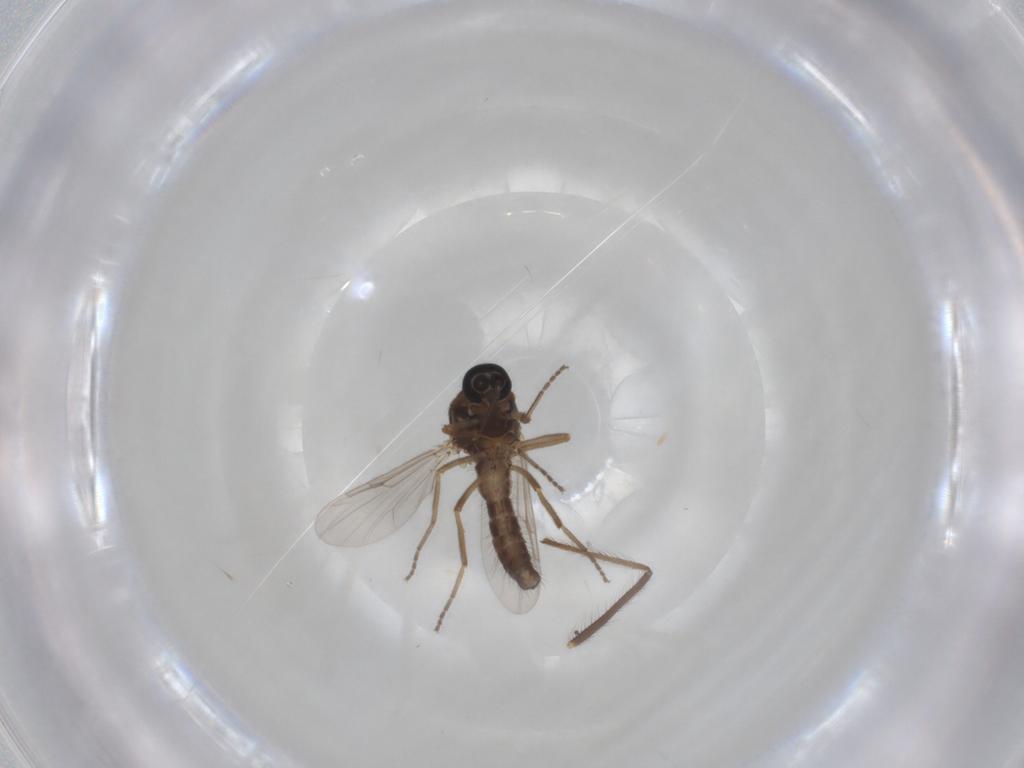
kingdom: Animalia
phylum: Arthropoda
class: Insecta
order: Diptera
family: Ceratopogonidae
